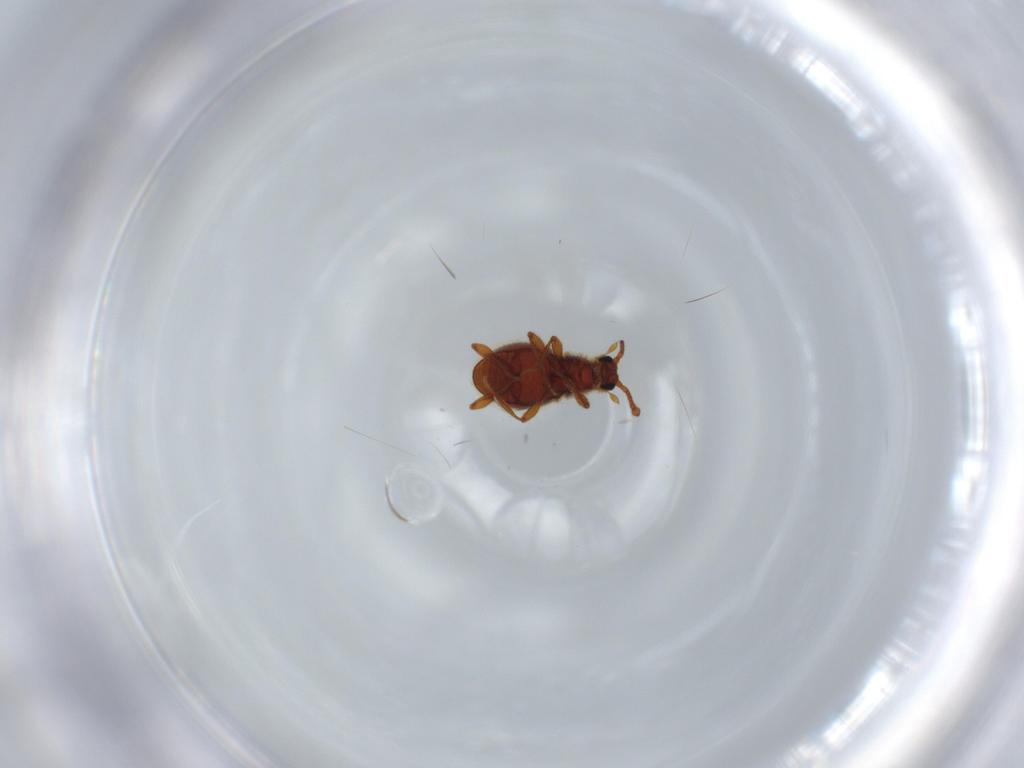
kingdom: Animalia
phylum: Arthropoda
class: Insecta
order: Coleoptera
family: Staphylinidae
